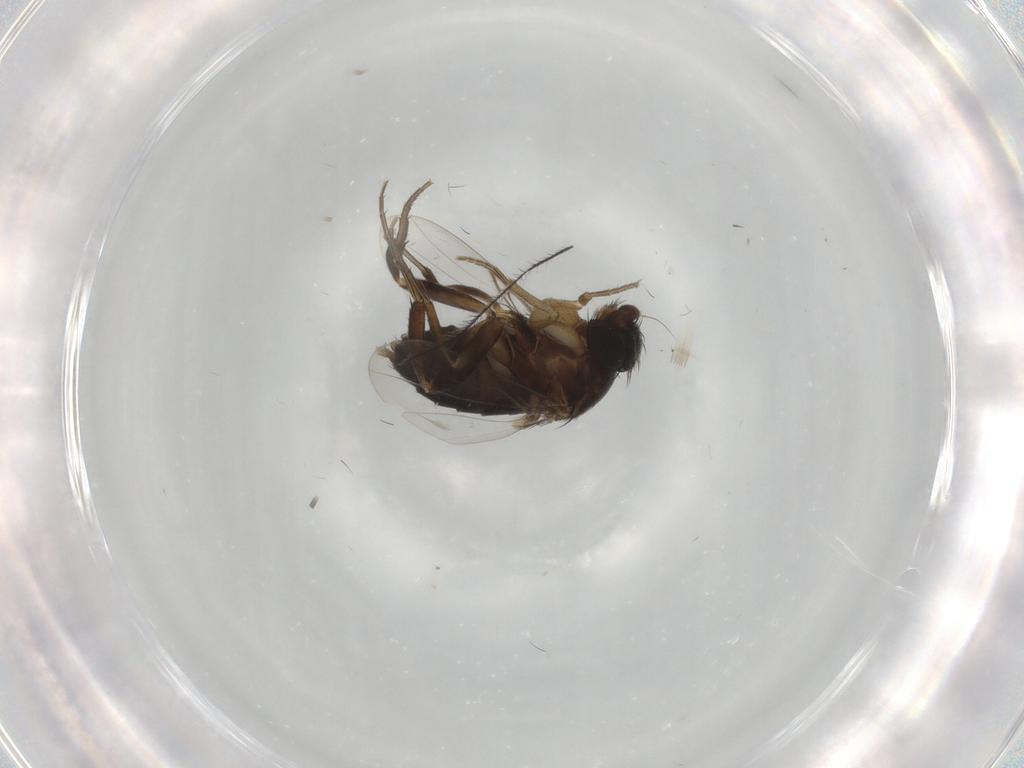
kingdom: Animalia
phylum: Arthropoda
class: Insecta
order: Diptera
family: Phoridae
